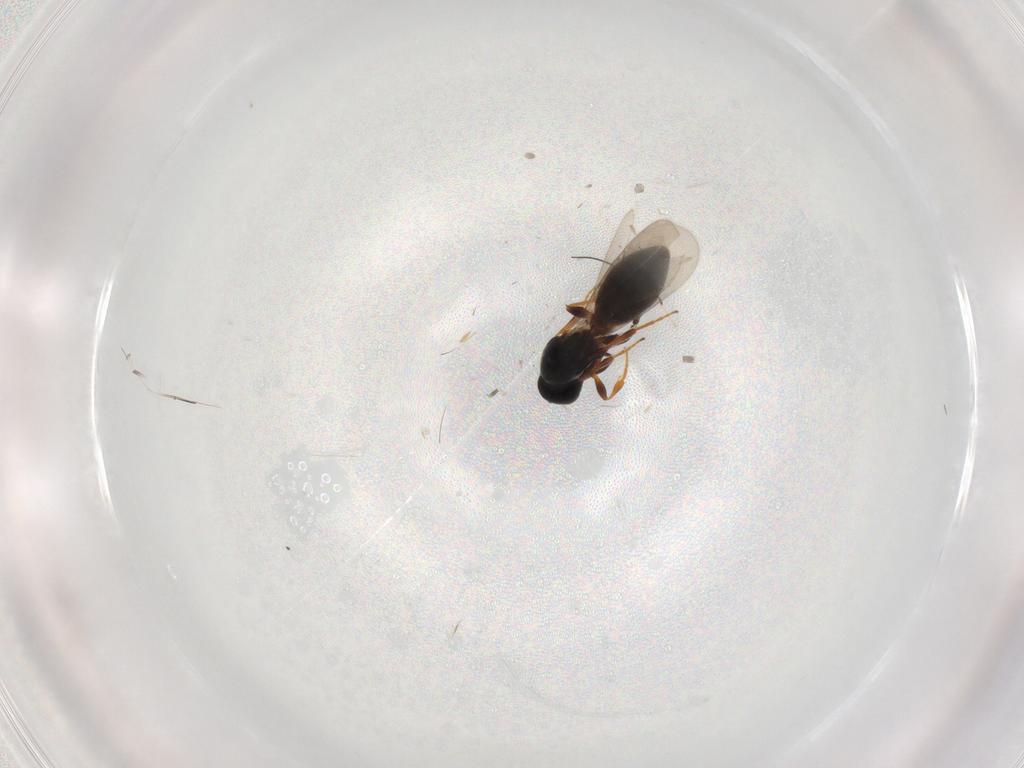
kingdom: Animalia
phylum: Arthropoda
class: Insecta
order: Hymenoptera
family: Platygastridae
